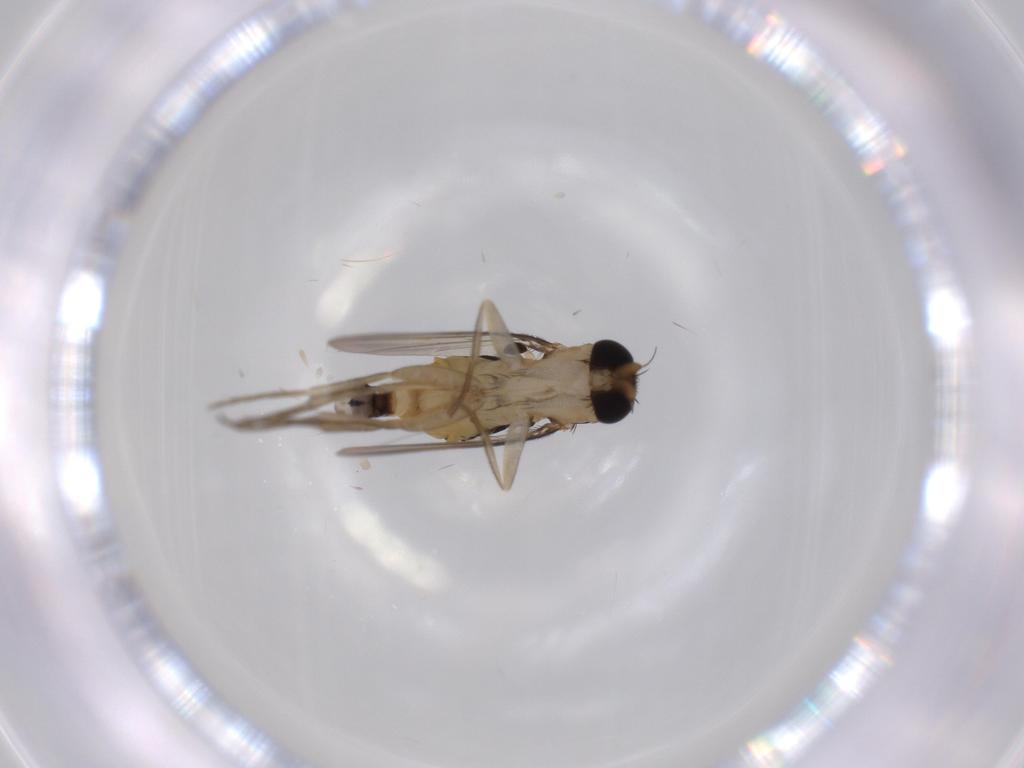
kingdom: Animalia
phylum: Arthropoda
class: Insecta
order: Diptera
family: Phoridae
